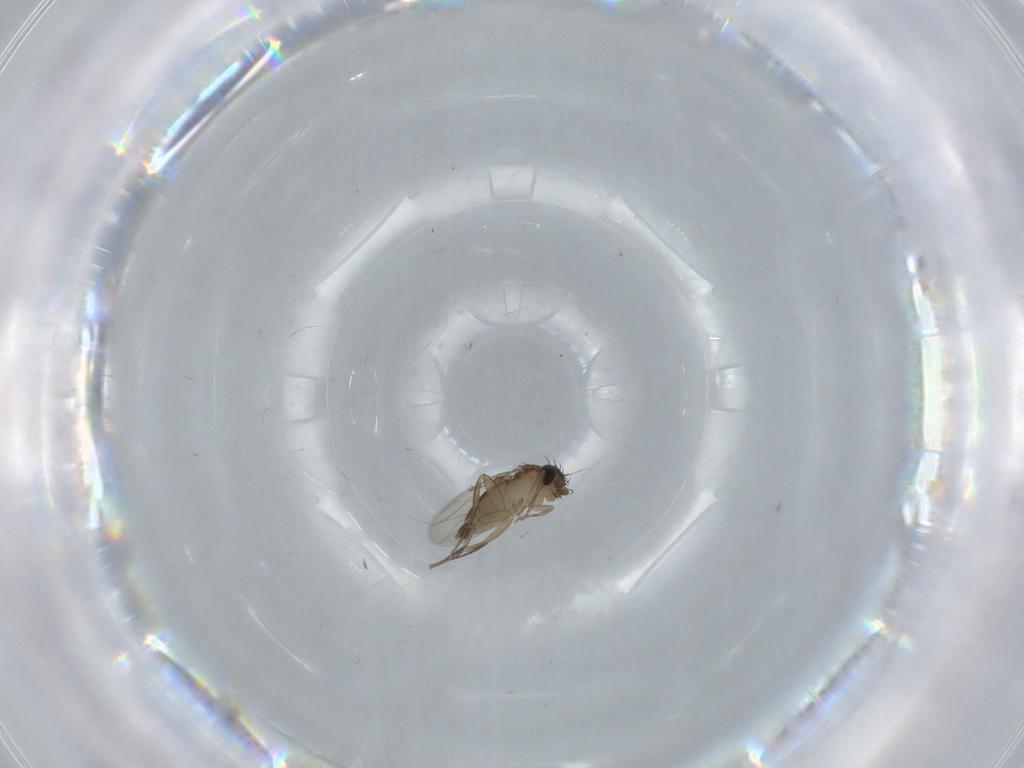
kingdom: Animalia
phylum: Arthropoda
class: Insecta
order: Diptera
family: Phoridae
